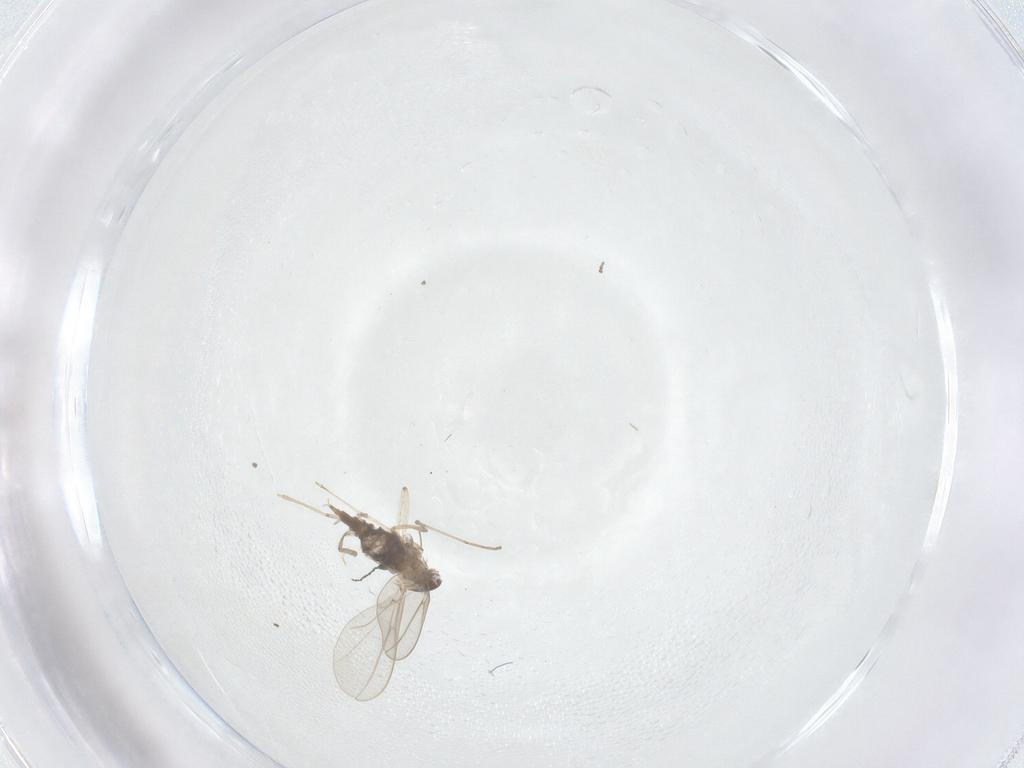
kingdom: Animalia
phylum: Arthropoda
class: Insecta
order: Diptera
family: Cecidomyiidae
